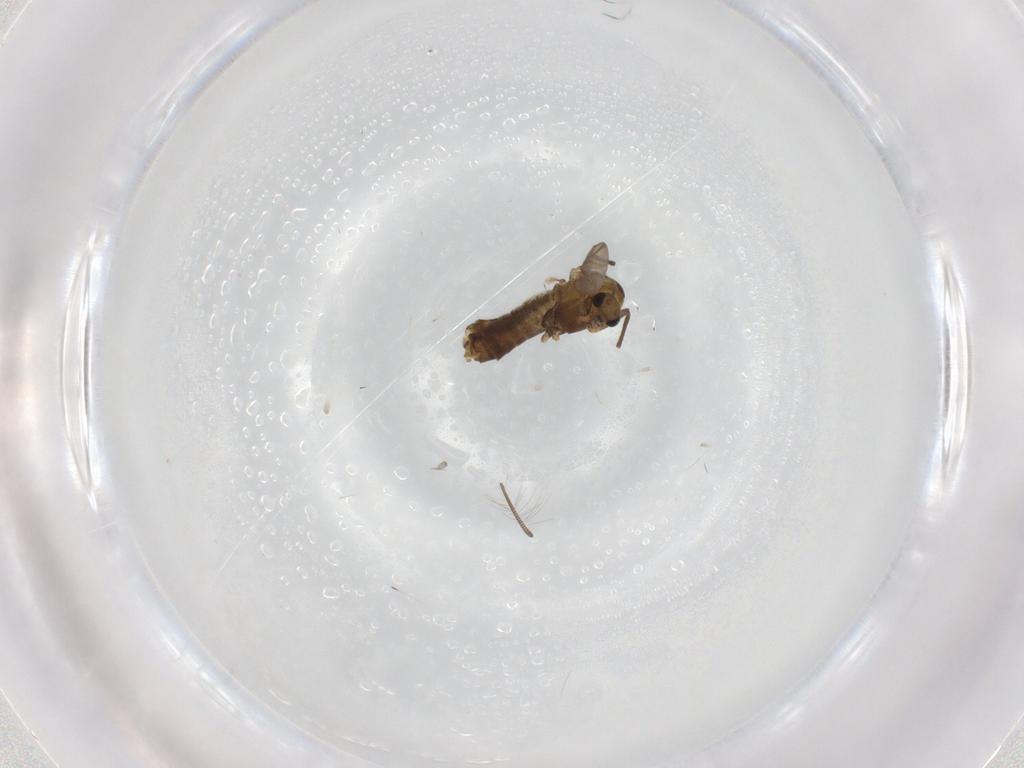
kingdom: Animalia
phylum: Arthropoda
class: Insecta
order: Diptera
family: Chironomidae
